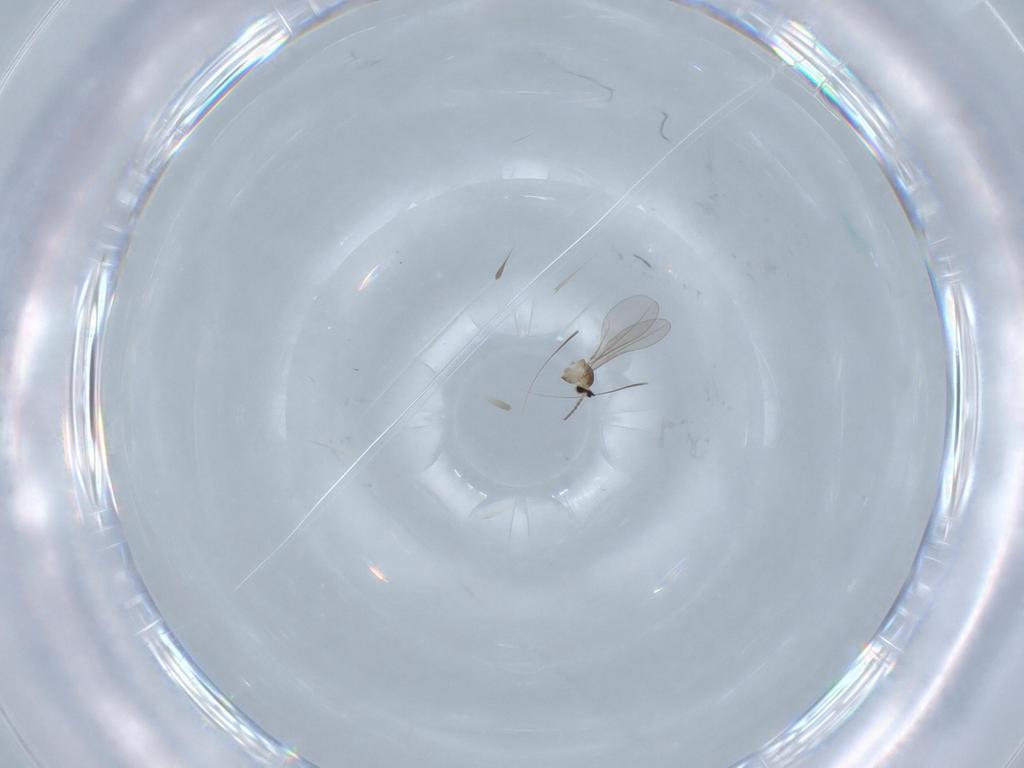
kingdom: Animalia
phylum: Arthropoda
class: Insecta
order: Diptera
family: Cecidomyiidae
